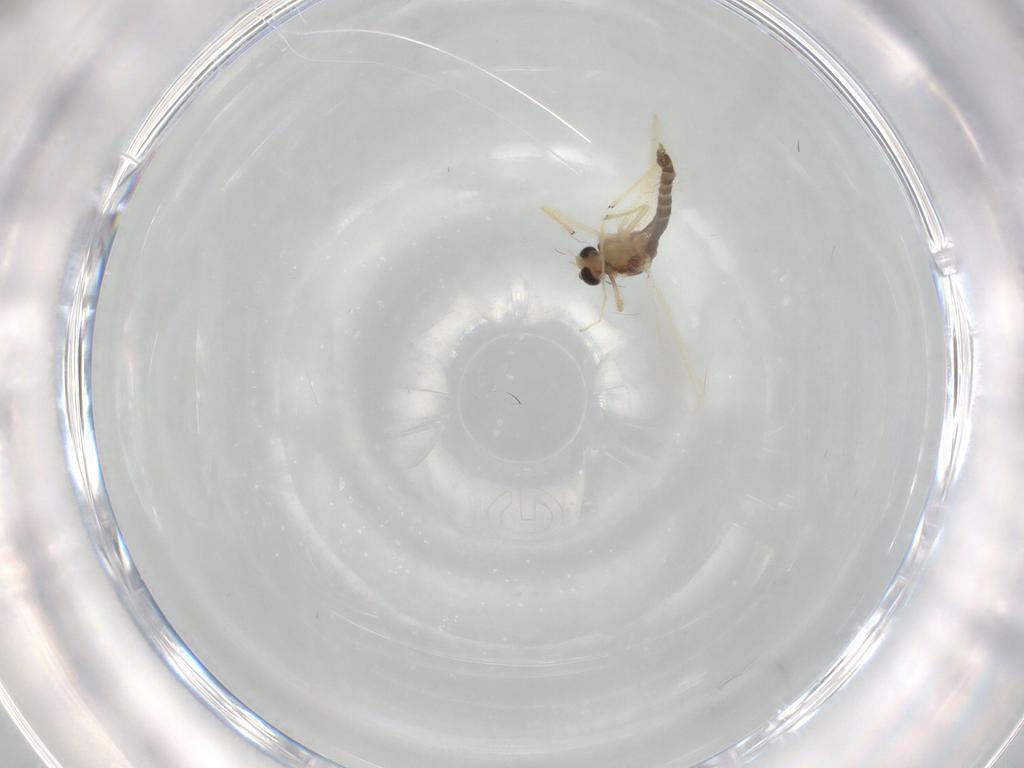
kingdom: Animalia
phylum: Arthropoda
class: Insecta
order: Diptera
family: Chironomidae
